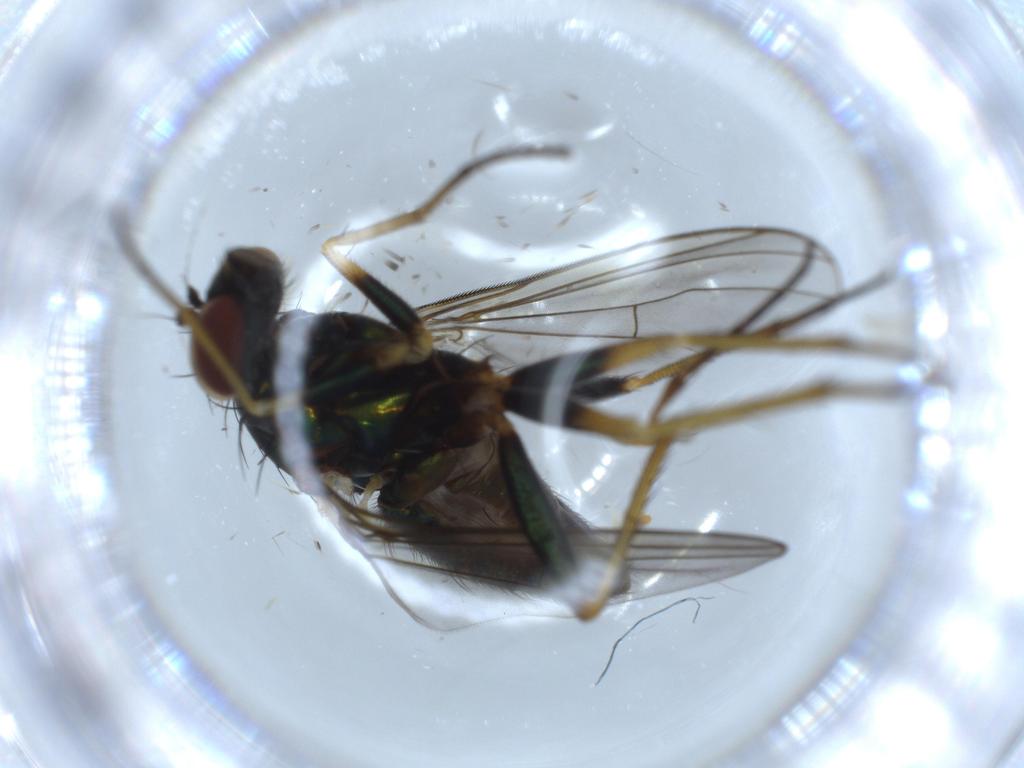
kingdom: Animalia
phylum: Arthropoda
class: Insecta
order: Diptera
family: Dolichopodidae
